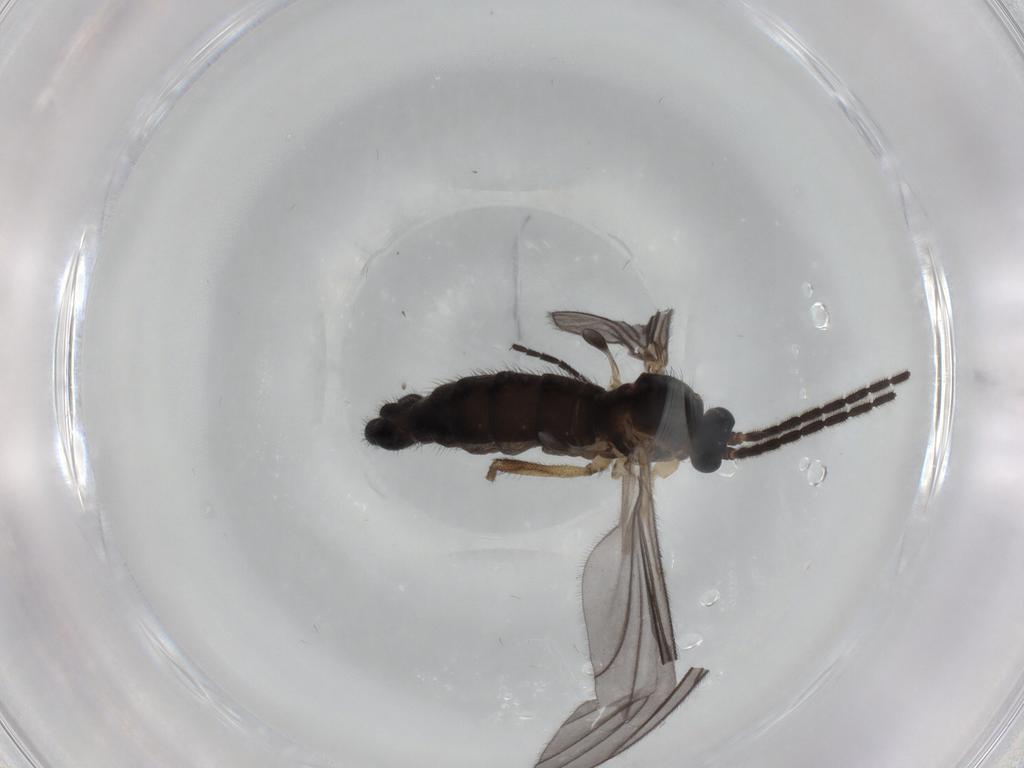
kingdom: Animalia
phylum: Arthropoda
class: Insecta
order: Diptera
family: Sciaridae
